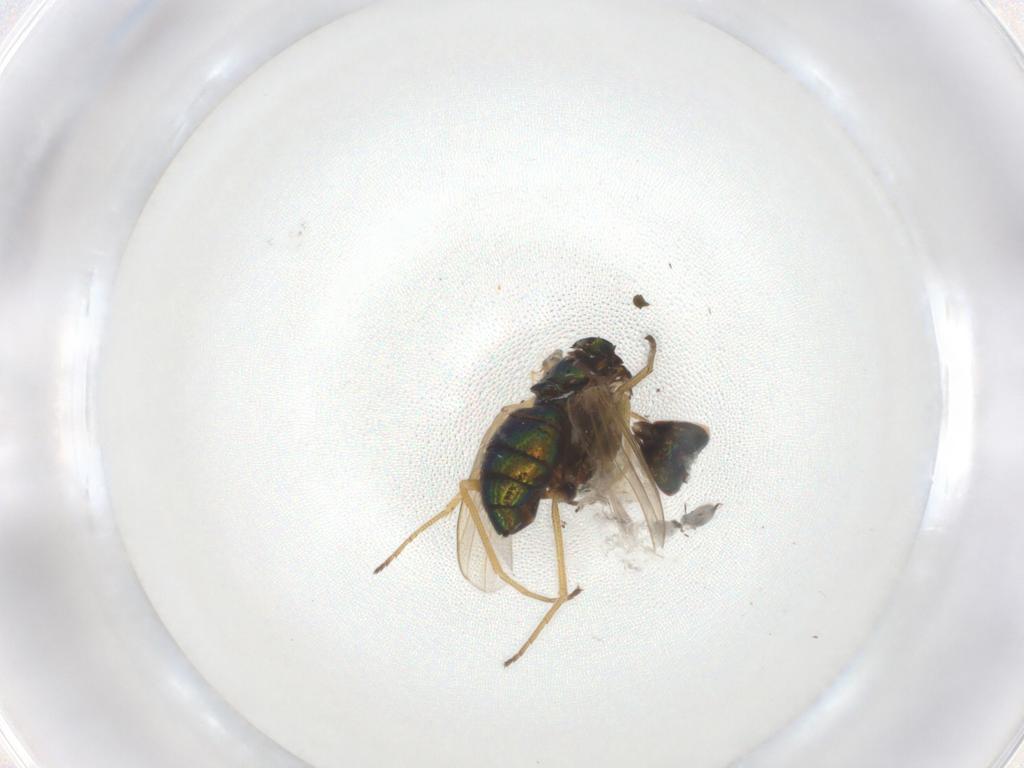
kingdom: Animalia
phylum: Arthropoda
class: Insecta
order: Diptera
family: Dolichopodidae
